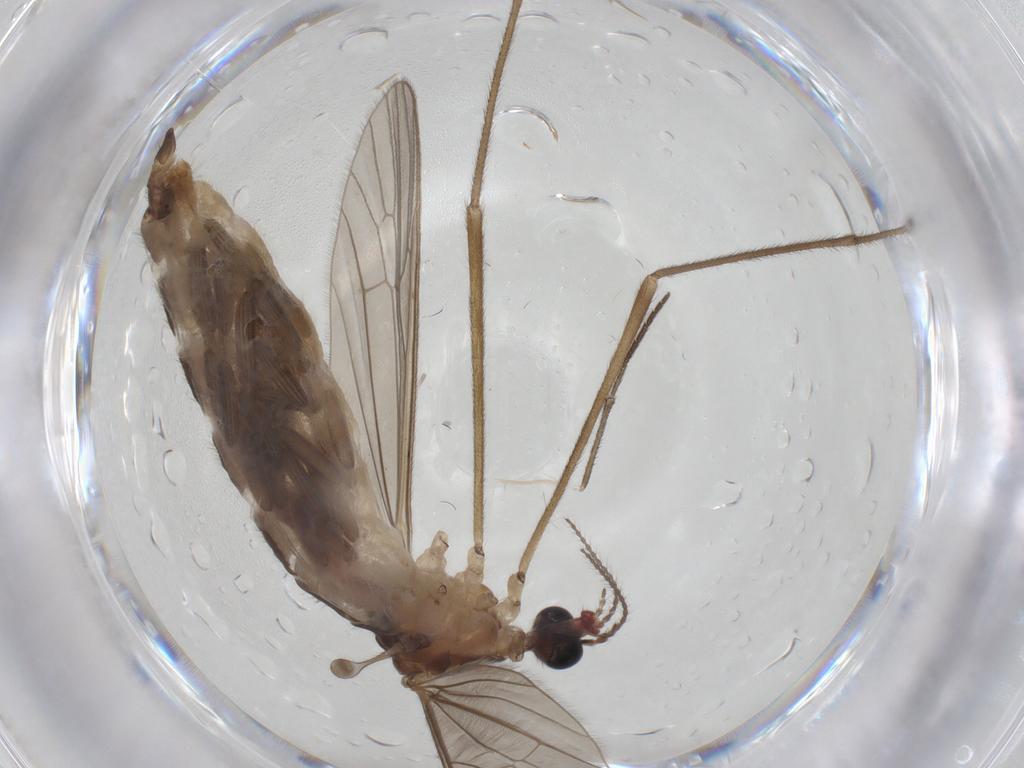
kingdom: Animalia
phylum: Arthropoda
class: Insecta
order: Diptera
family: Limoniidae
